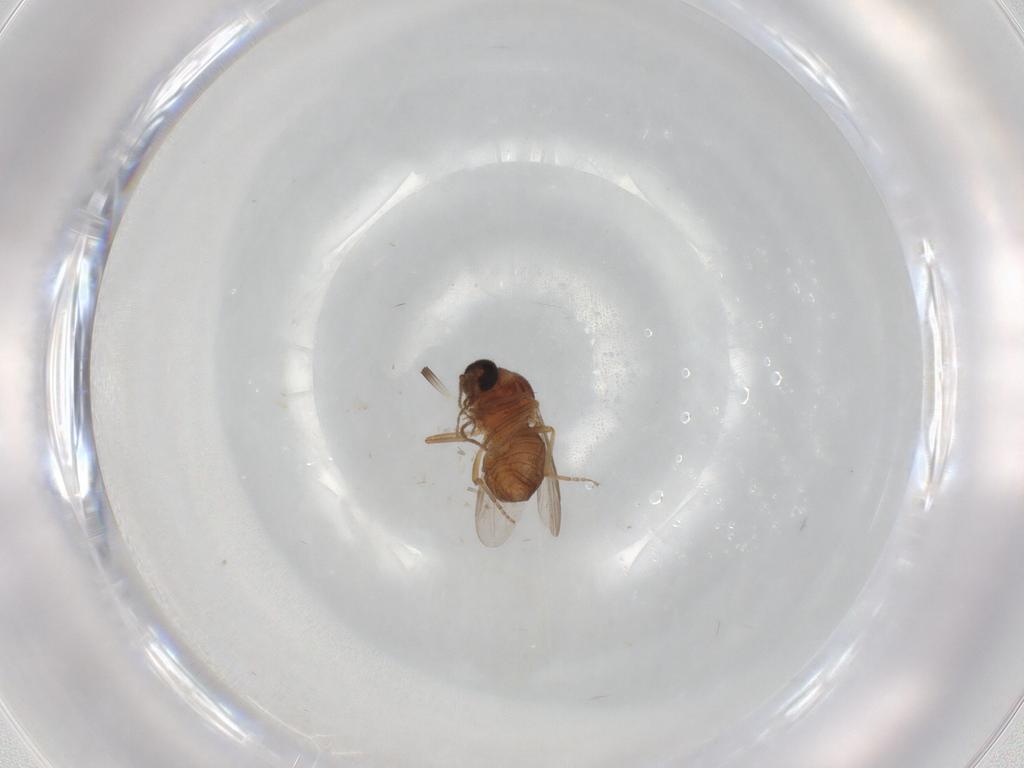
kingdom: Animalia
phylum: Arthropoda
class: Insecta
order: Diptera
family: Ceratopogonidae
